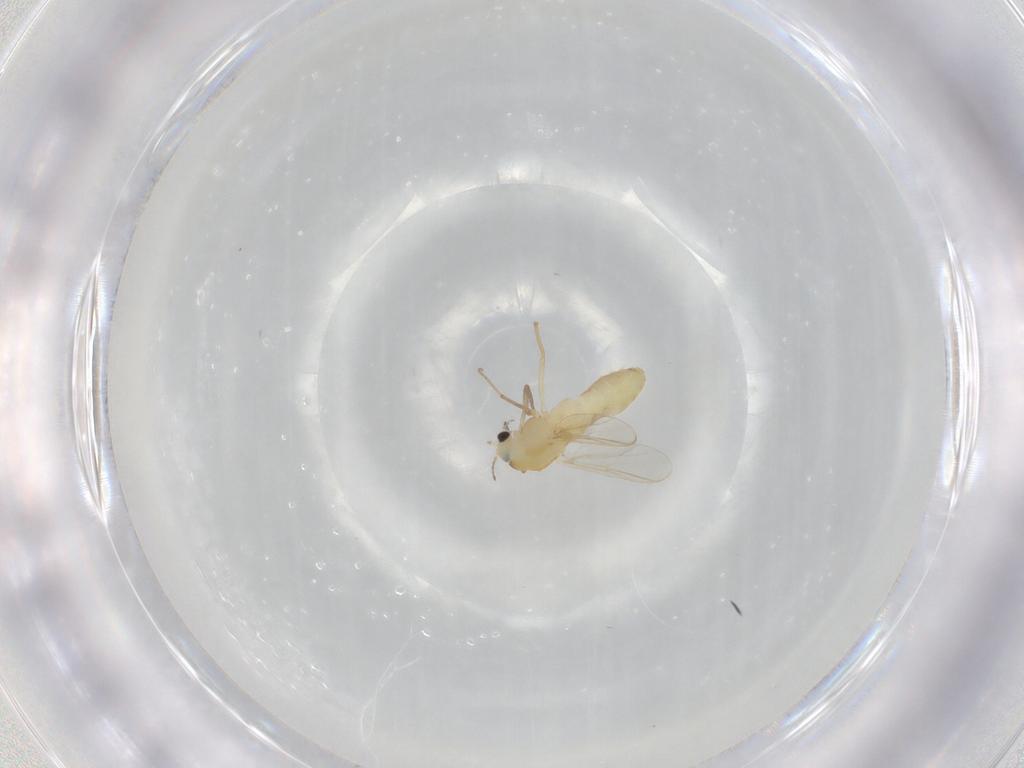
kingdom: Animalia
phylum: Arthropoda
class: Insecta
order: Diptera
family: Chironomidae
